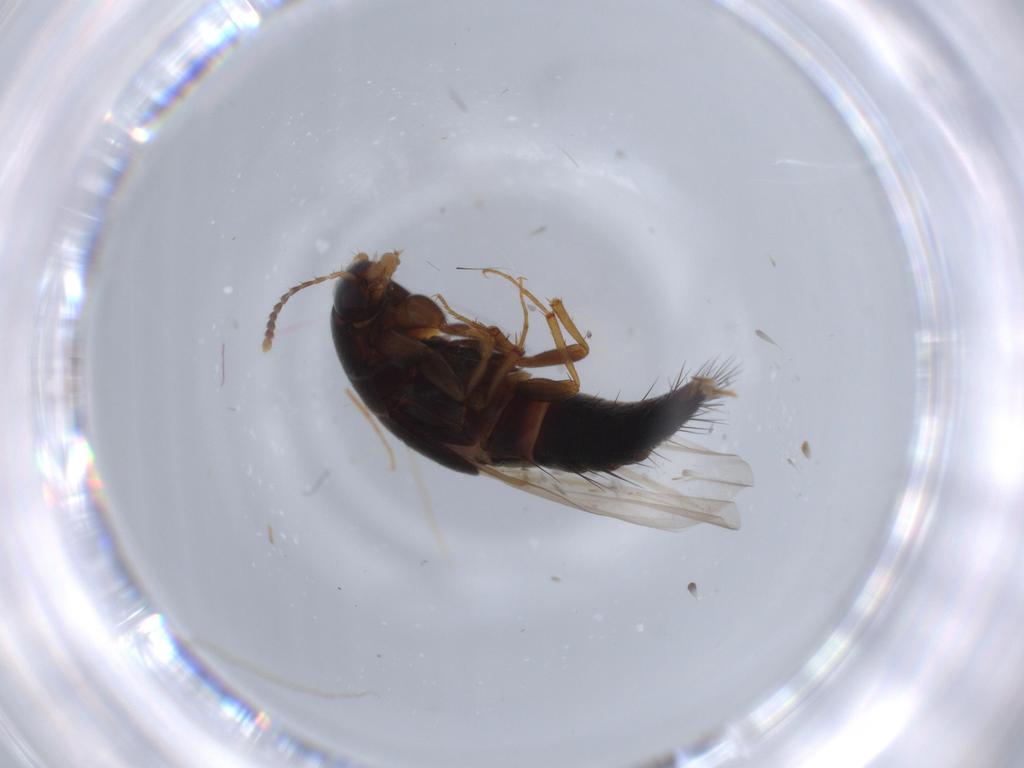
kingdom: Animalia
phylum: Arthropoda
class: Insecta
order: Coleoptera
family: Staphylinidae
